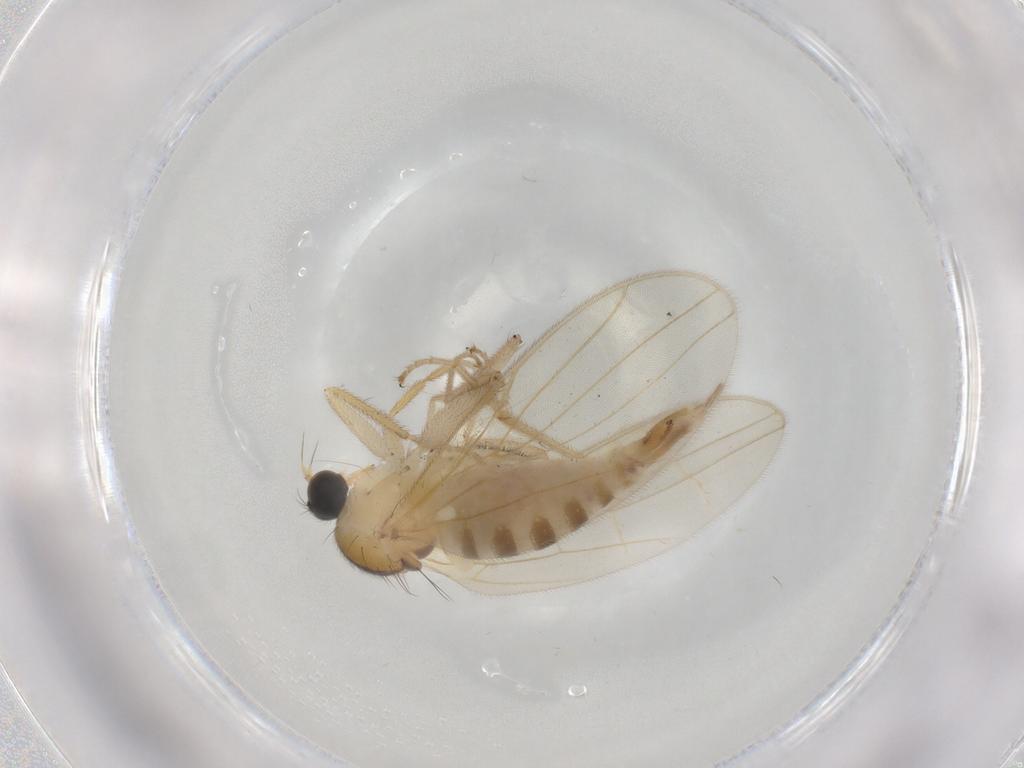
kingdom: Animalia
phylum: Arthropoda
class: Insecta
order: Diptera
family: Hybotidae
